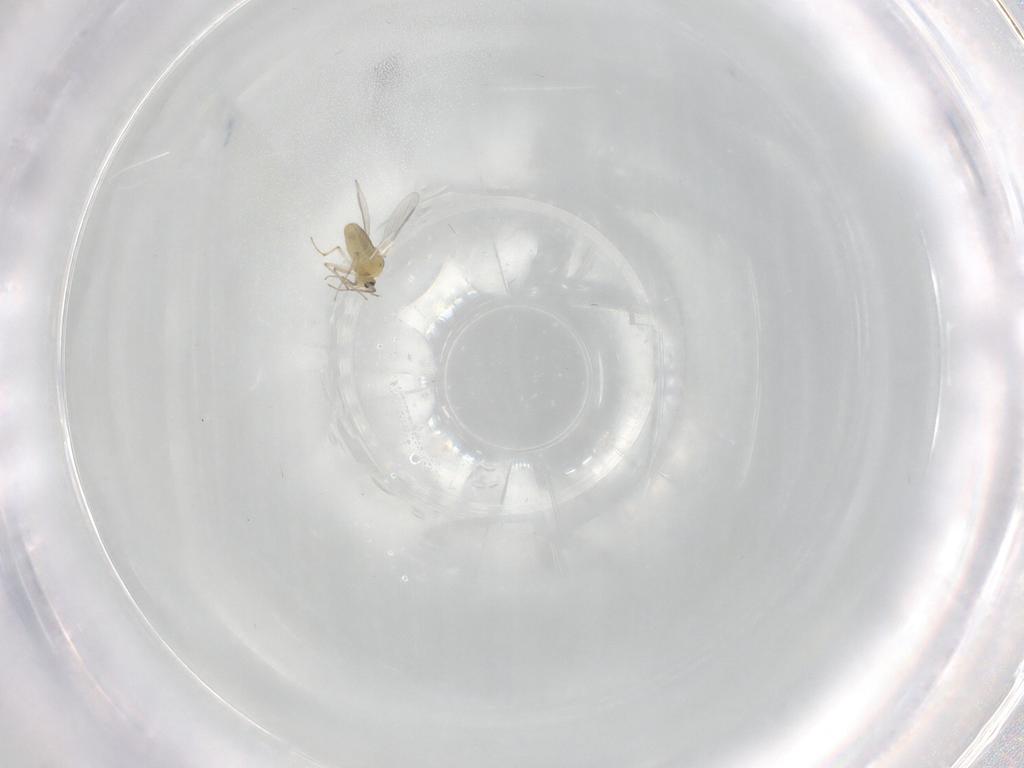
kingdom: Animalia
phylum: Arthropoda
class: Insecta
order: Diptera
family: Chironomidae
